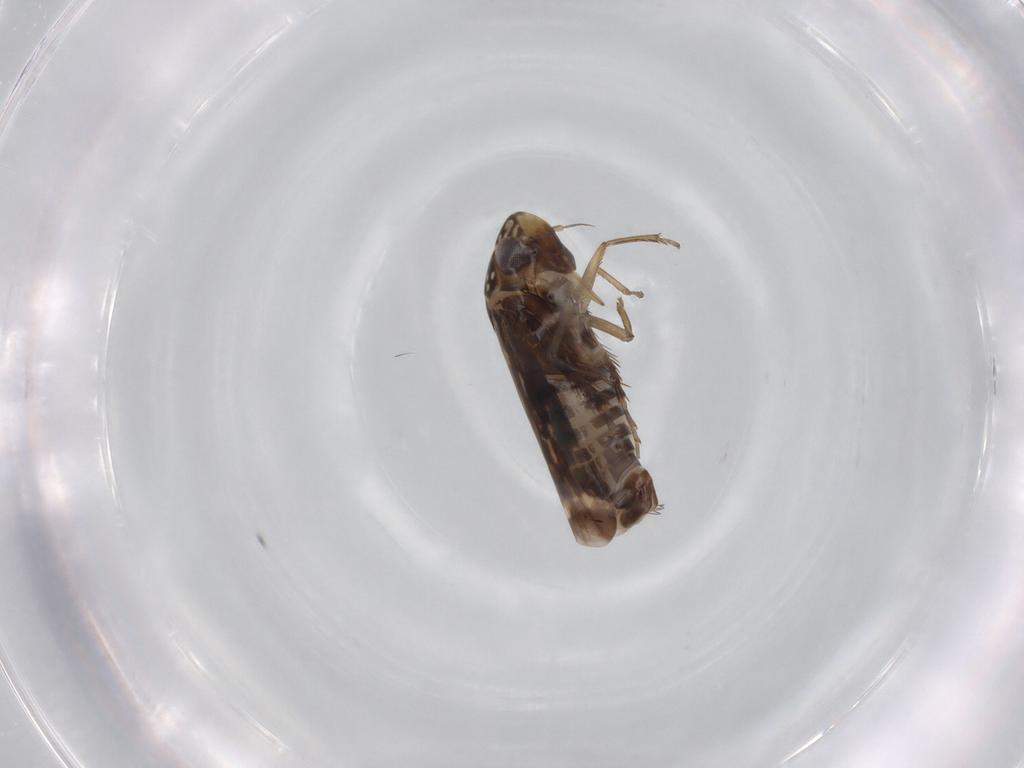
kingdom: Animalia
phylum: Arthropoda
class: Insecta
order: Hemiptera
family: Cicadellidae
